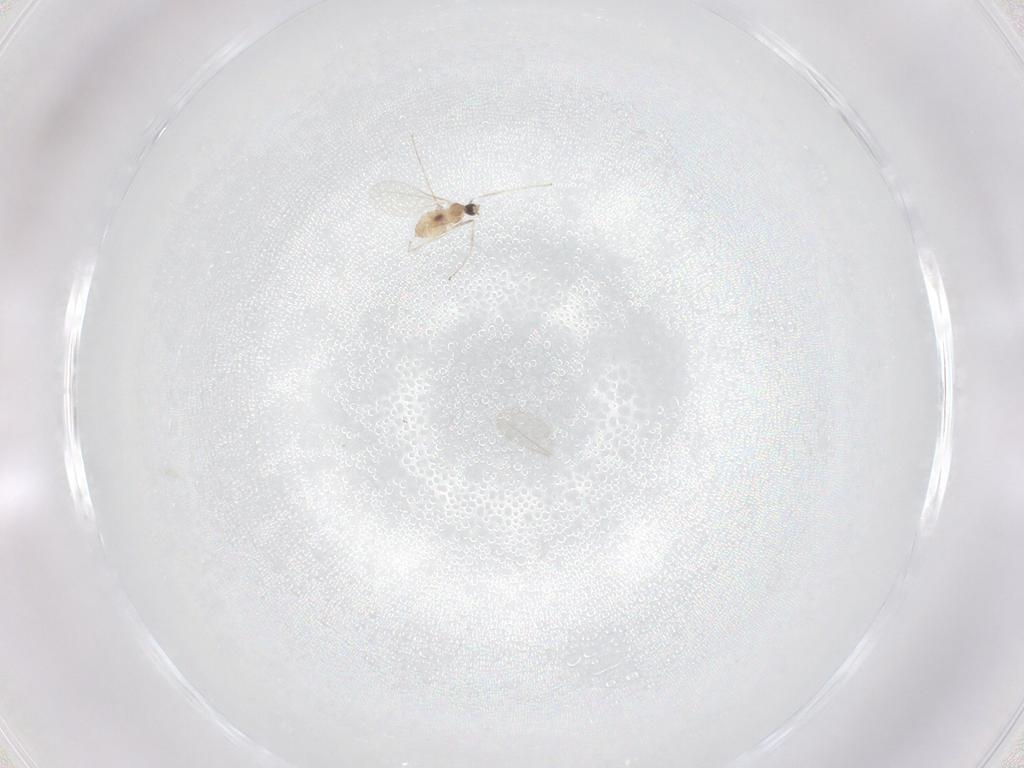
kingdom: Animalia
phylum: Arthropoda
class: Insecta
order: Diptera
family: Cecidomyiidae
